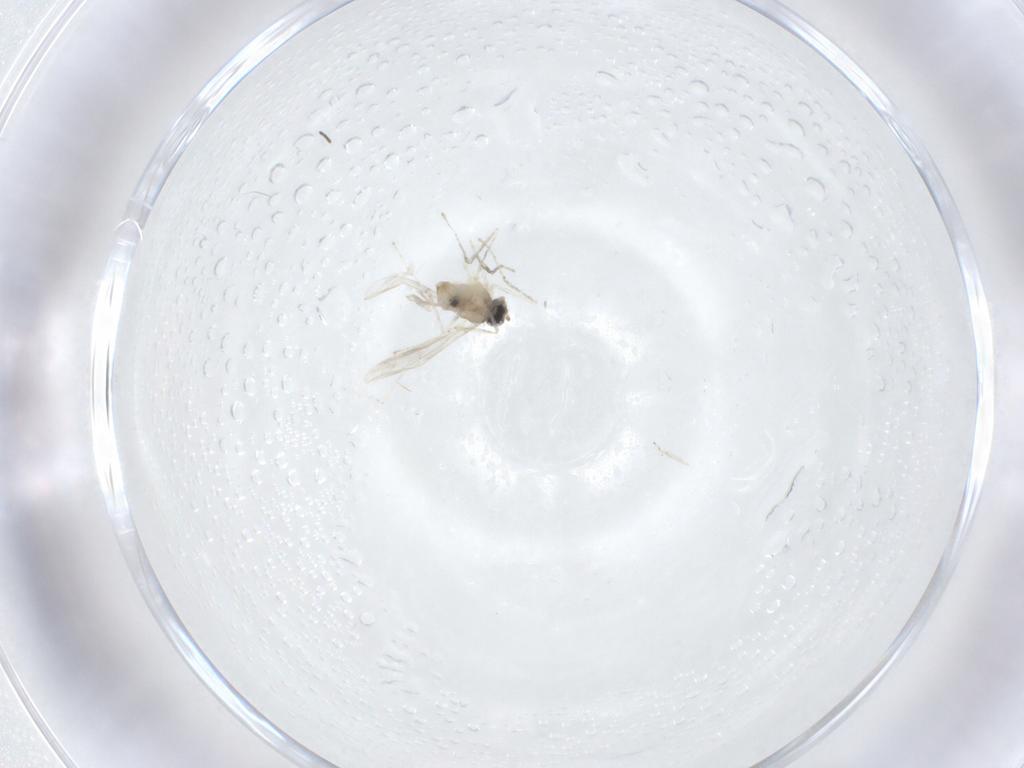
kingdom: Animalia
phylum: Arthropoda
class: Insecta
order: Diptera
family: Cecidomyiidae
